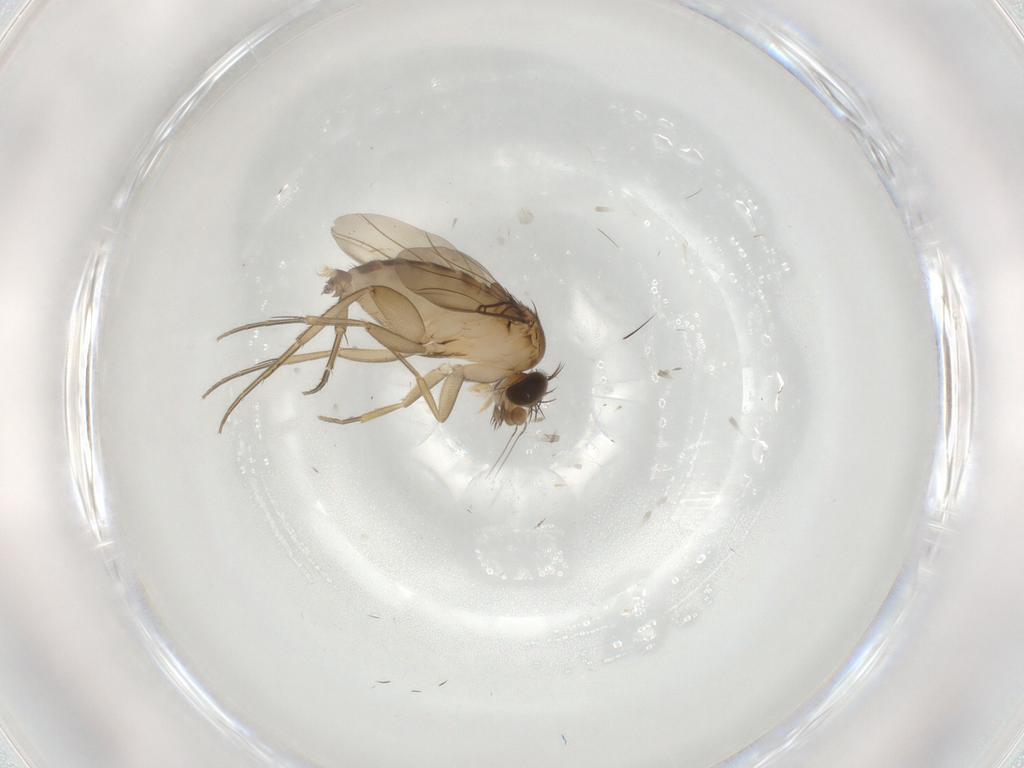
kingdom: Animalia
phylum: Arthropoda
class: Insecta
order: Diptera
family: Phoridae
